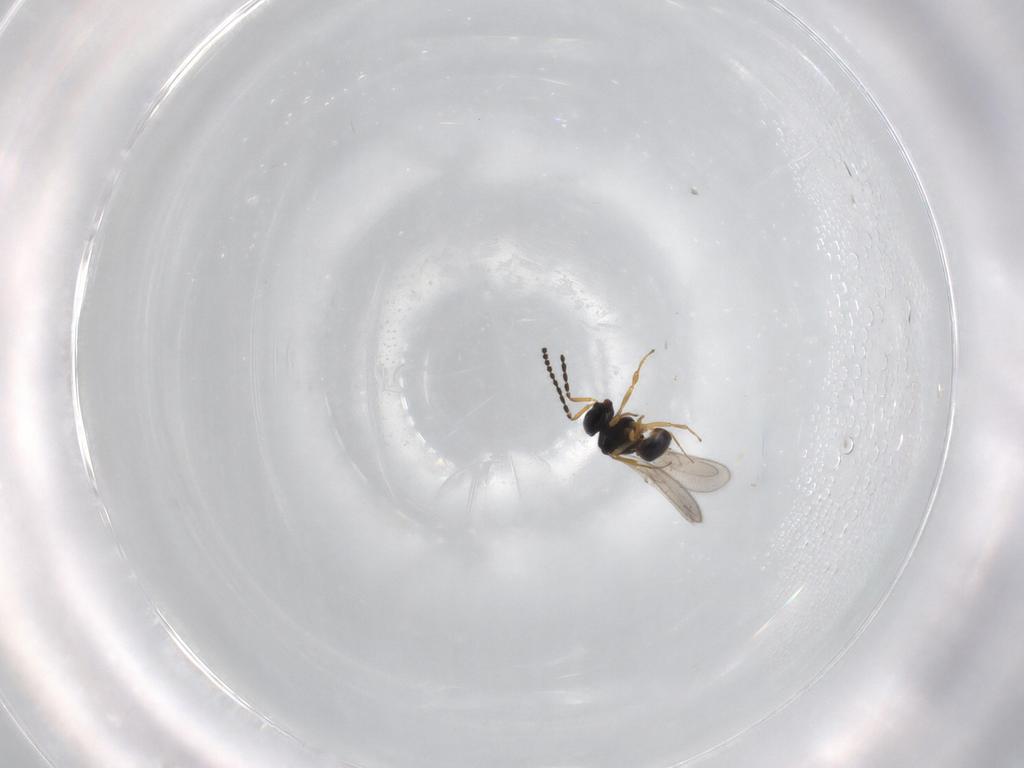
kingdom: Animalia
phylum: Arthropoda
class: Insecta
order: Hymenoptera
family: Scelionidae
